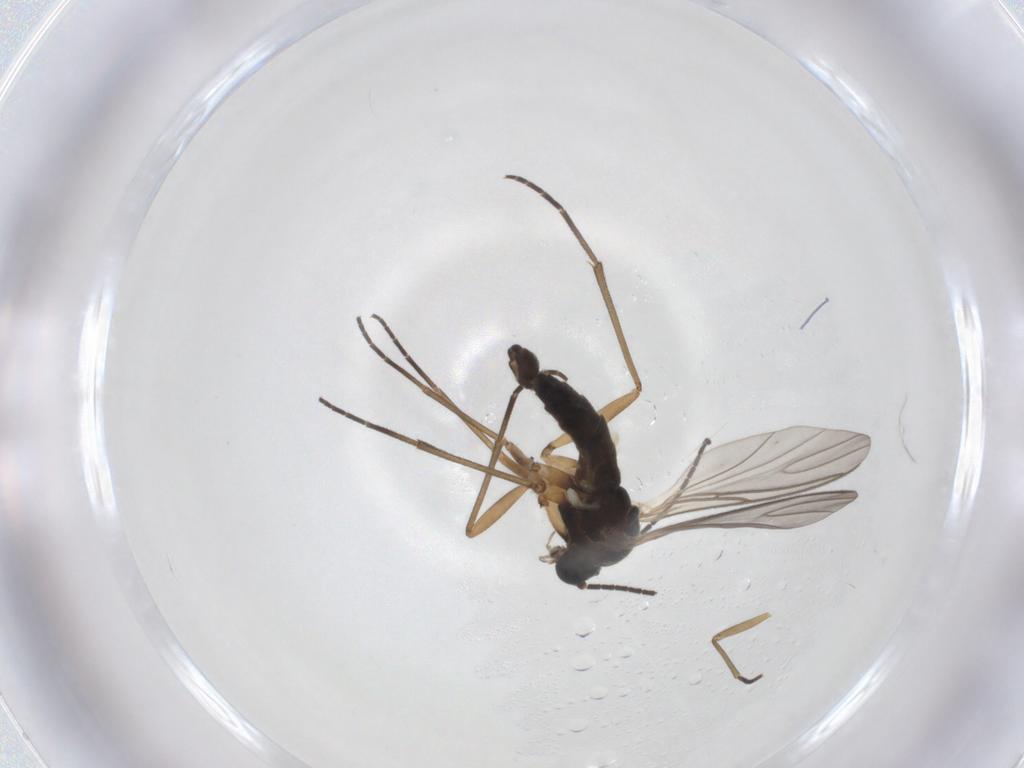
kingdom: Animalia
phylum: Arthropoda
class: Insecta
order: Diptera
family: Sciaridae
